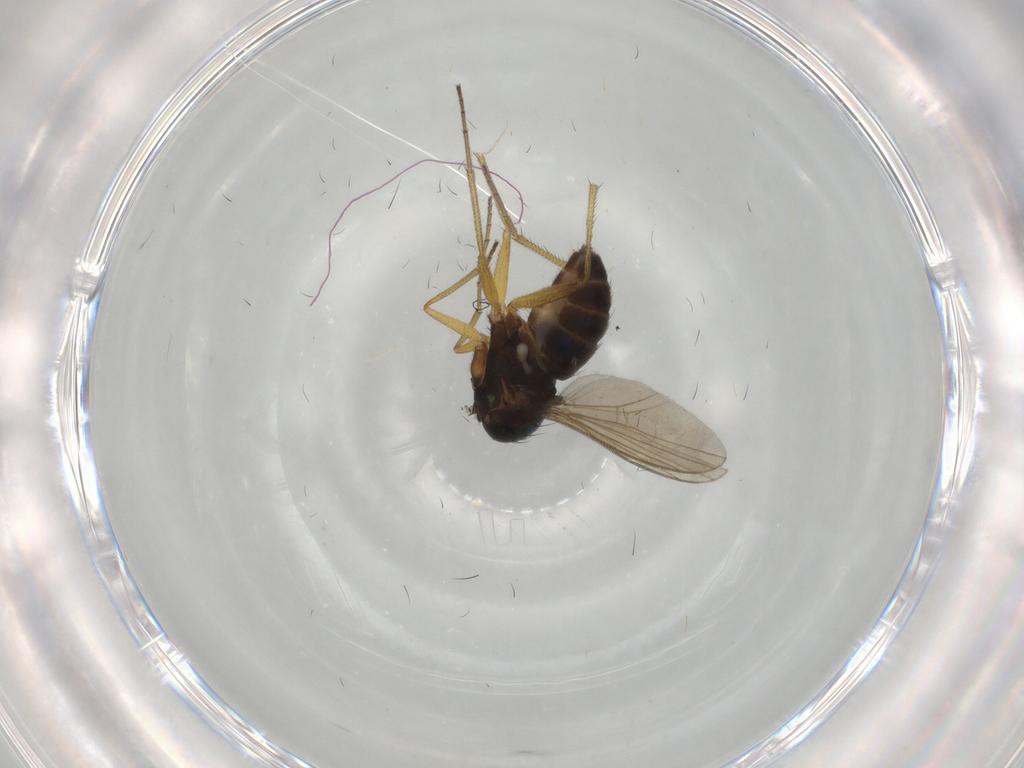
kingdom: Animalia
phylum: Arthropoda
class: Insecta
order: Diptera
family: Dolichopodidae
